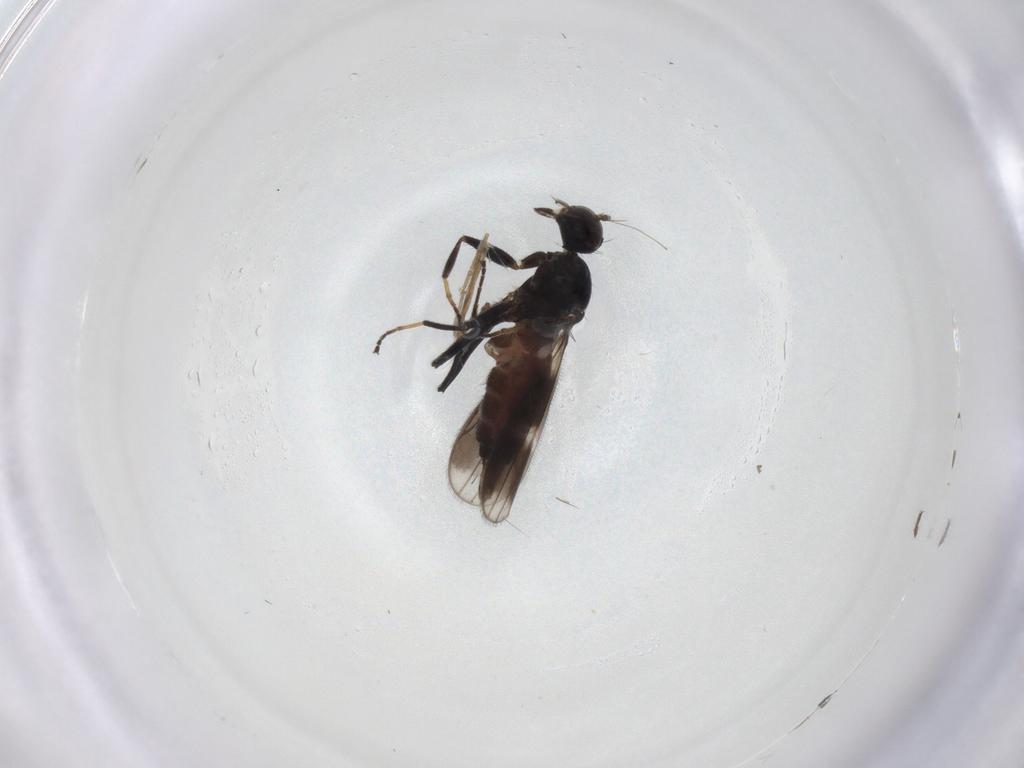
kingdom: Animalia
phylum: Arthropoda
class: Insecta
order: Diptera
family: Hybotidae
